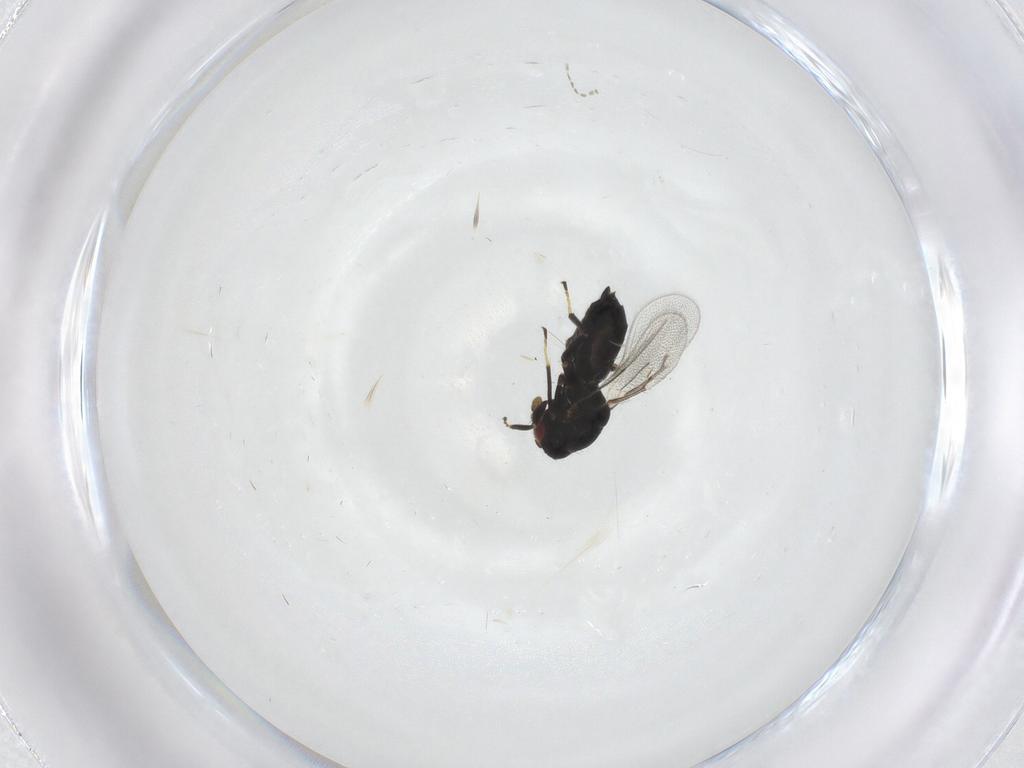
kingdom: Animalia
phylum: Arthropoda
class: Insecta
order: Hymenoptera
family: Eulophidae
